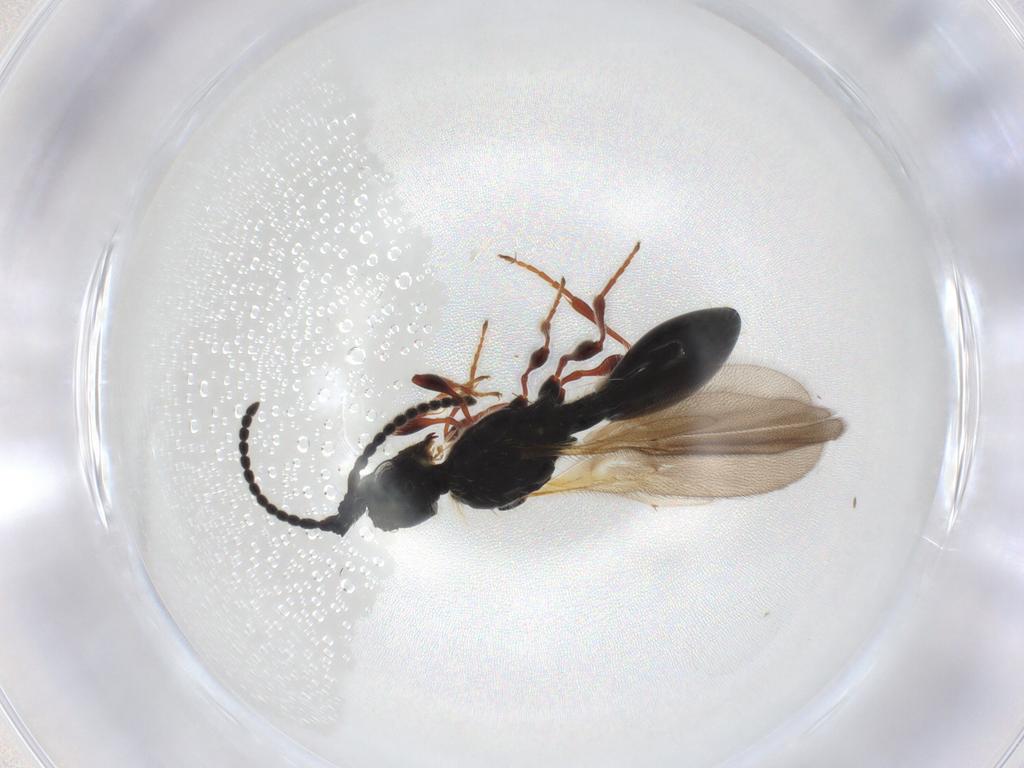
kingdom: Animalia
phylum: Arthropoda
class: Insecta
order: Hymenoptera
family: Diapriidae
